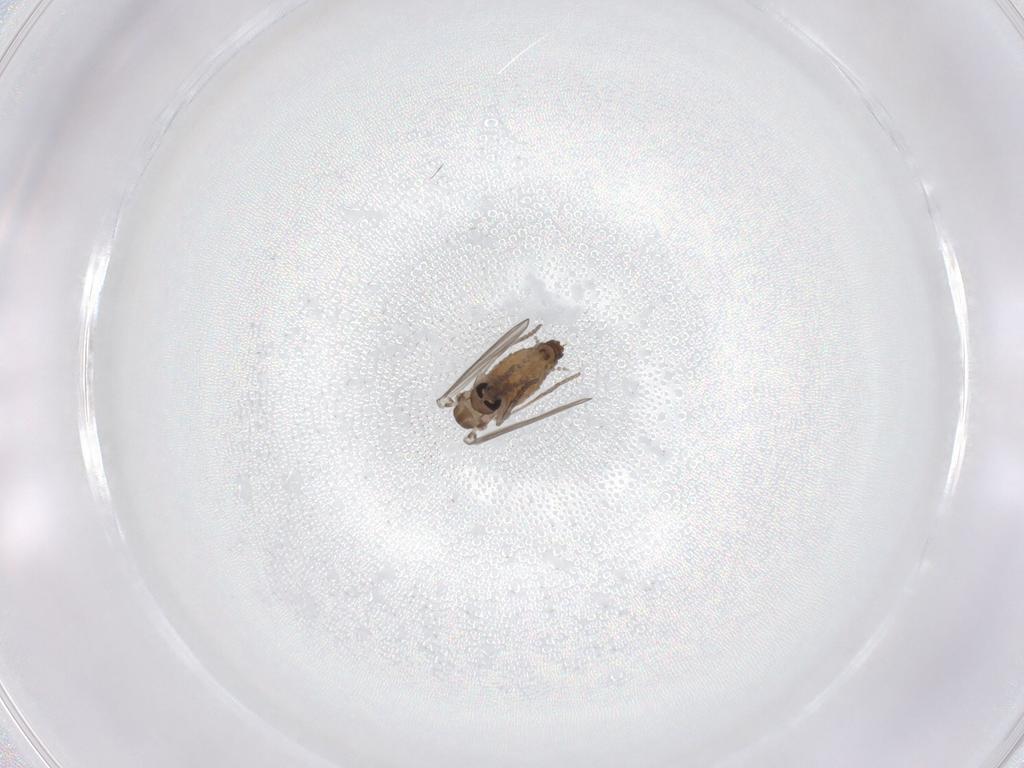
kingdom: Animalia
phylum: Arthropoda
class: Insecta
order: Diptera
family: Psychodidae
